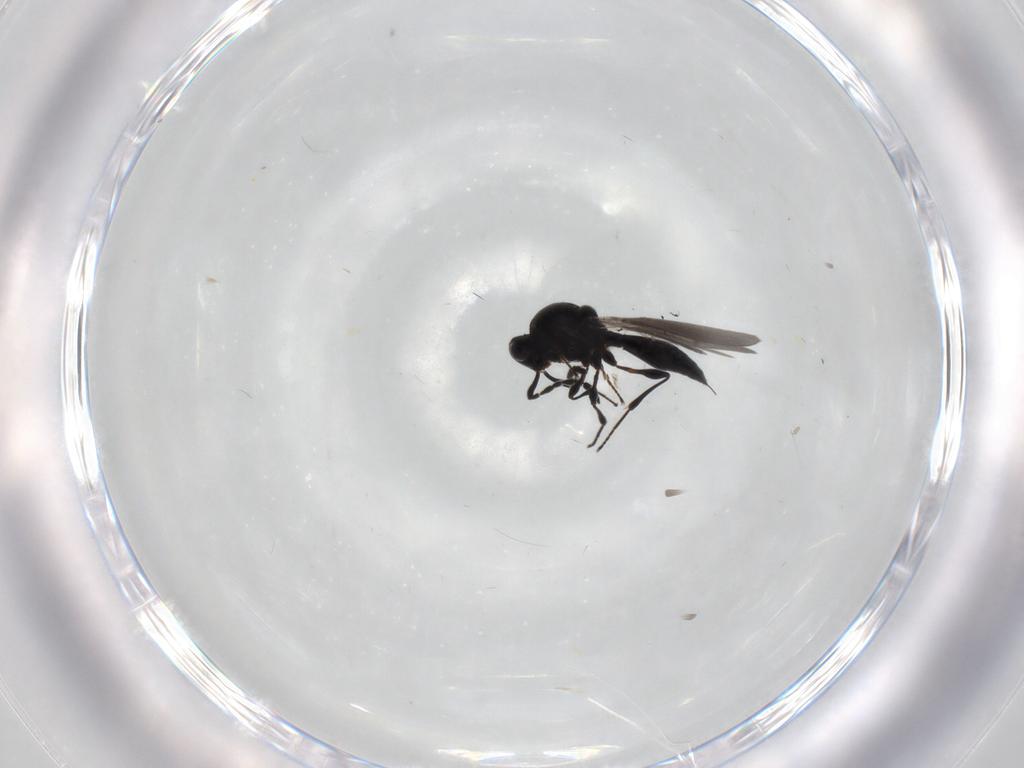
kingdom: Animalia
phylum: Arthropoda
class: Insecta
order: Hymenoptera
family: Platygastridae
